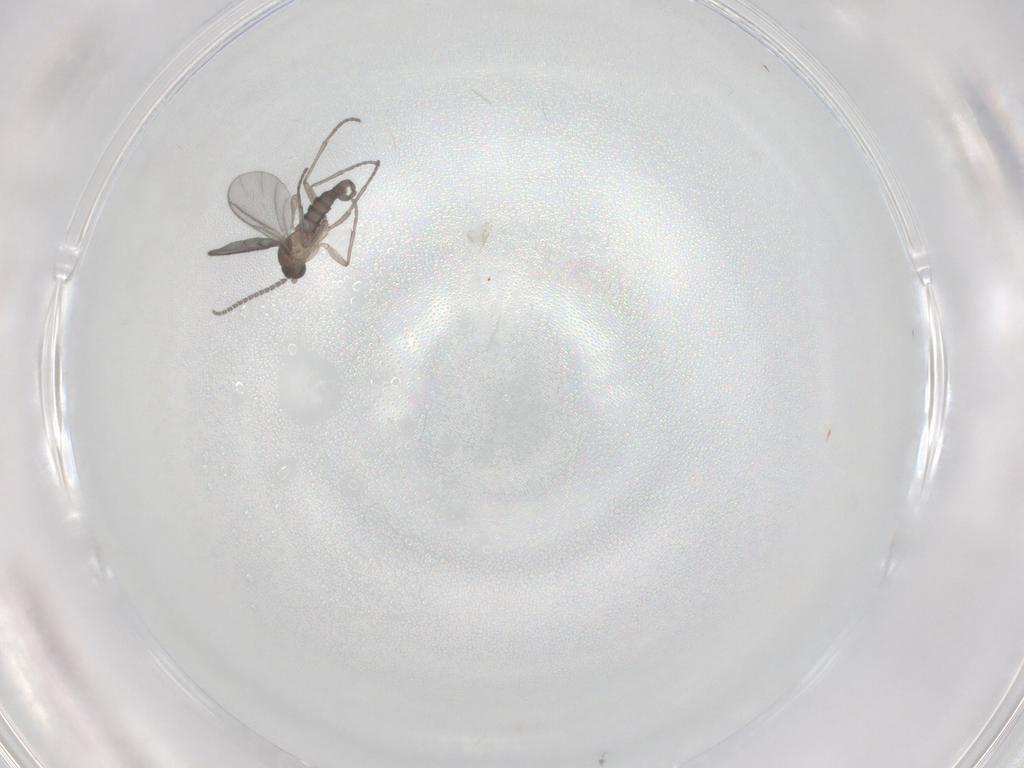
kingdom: Animalia
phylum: Arthropoda
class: Insecta
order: Diptera
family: Sciaridae
